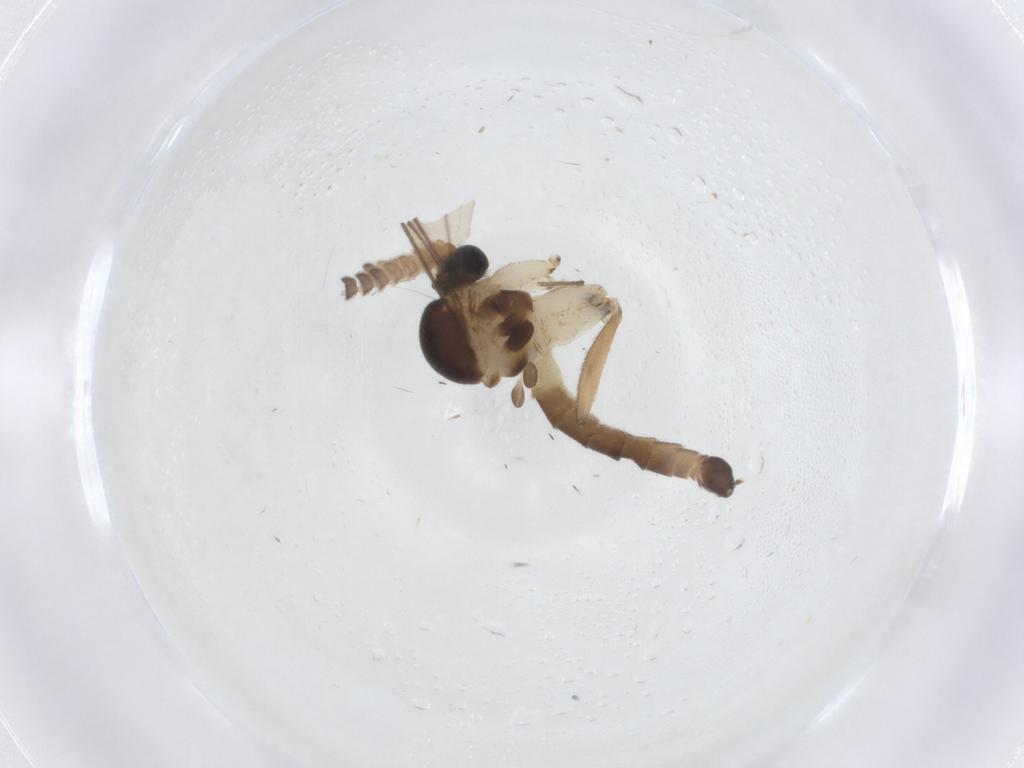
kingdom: Animalia
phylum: Arthropoda
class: Insecta
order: Diptera
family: Phoridae
